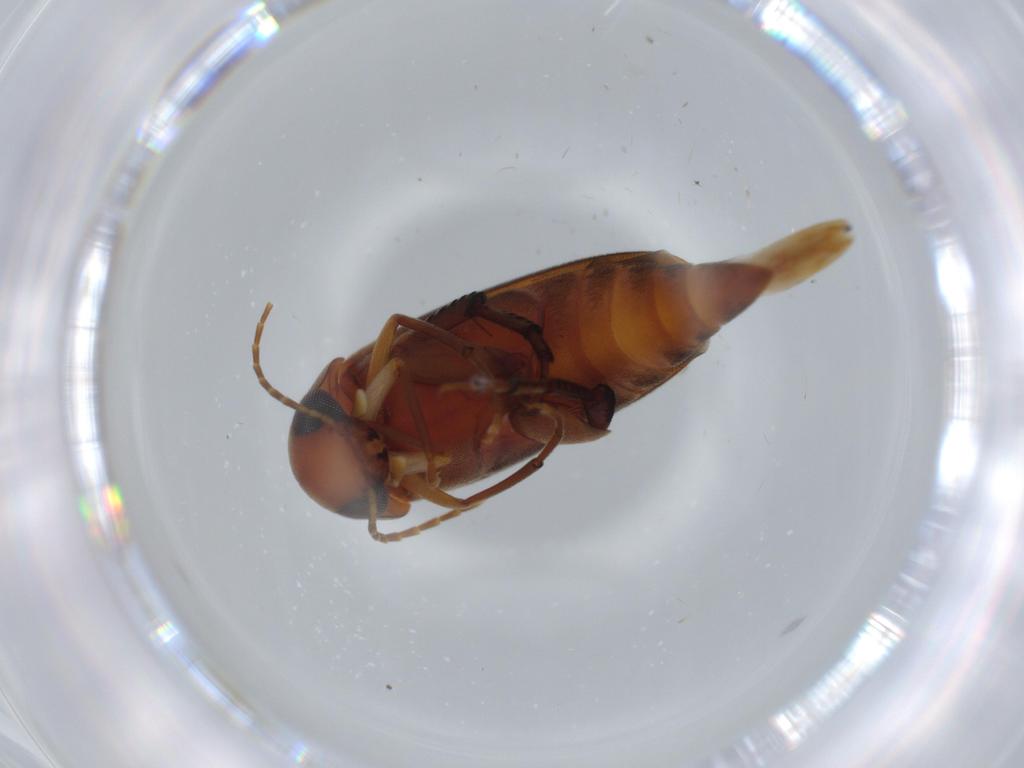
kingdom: Animalia
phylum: Arthropoda
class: Insecta
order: Coleoptera
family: Mordellidae
